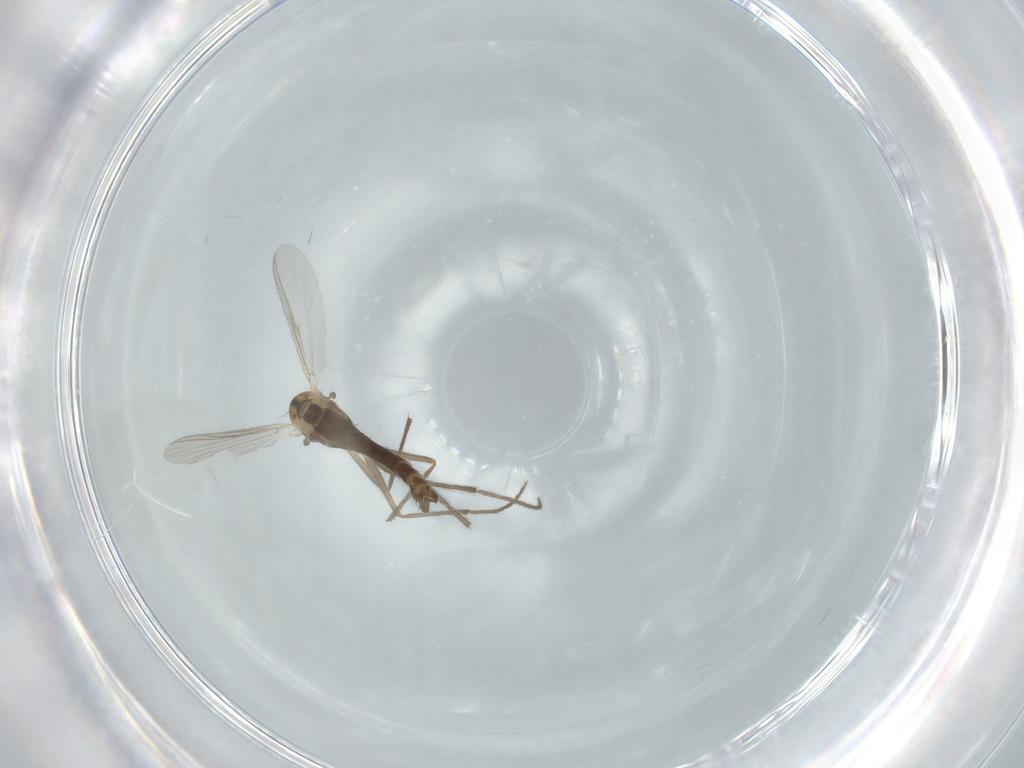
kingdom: Animalia
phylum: Arthropoda
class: Insecta
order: Diptera
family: Chironomidae
